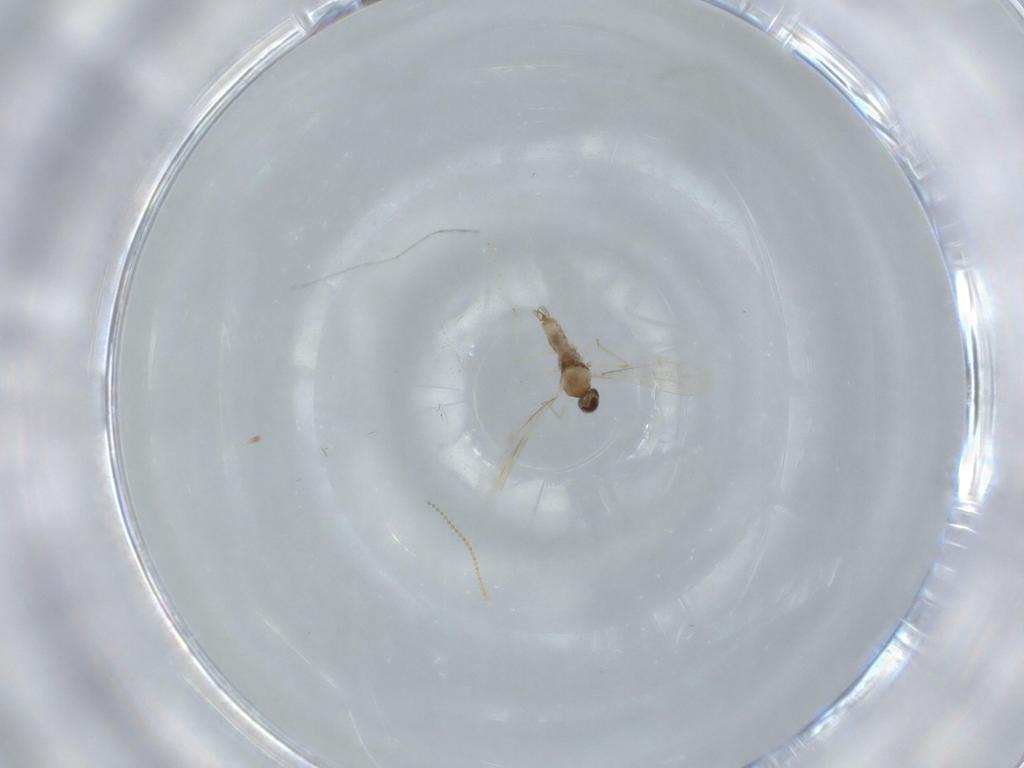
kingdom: Animalia
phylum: Arthropoda
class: Insecta
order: Diptera
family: Cecidomyiidae
